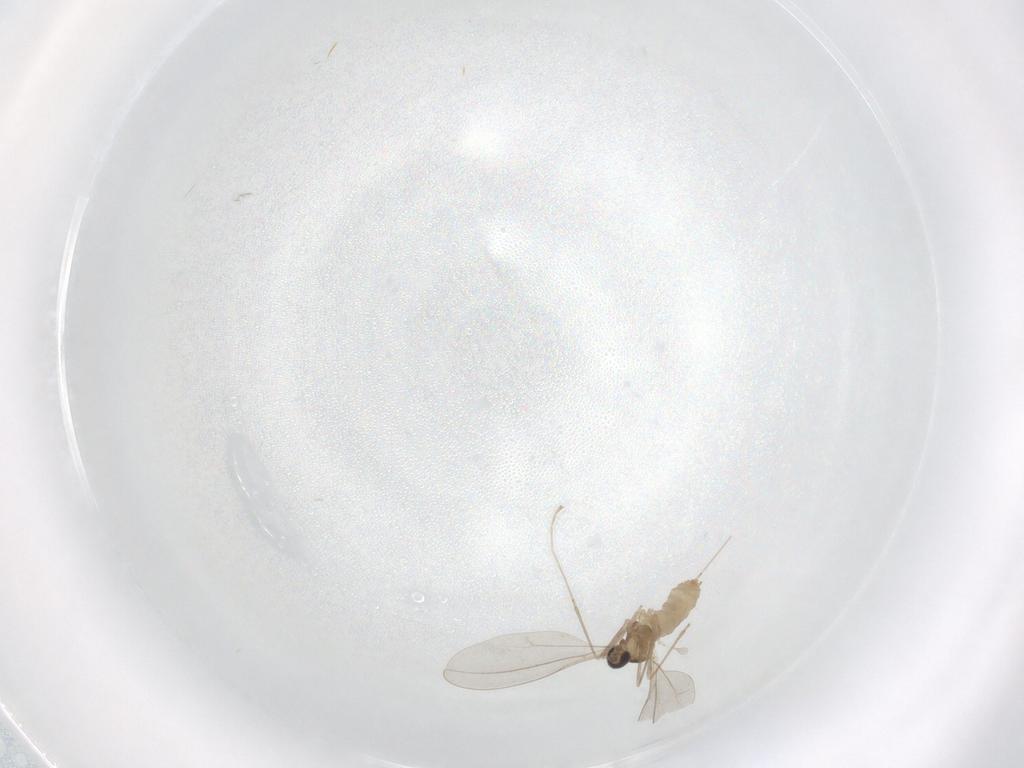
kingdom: Animalia
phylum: Arthropoda
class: Insecta
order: Diptera
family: Cecidomyiidae
